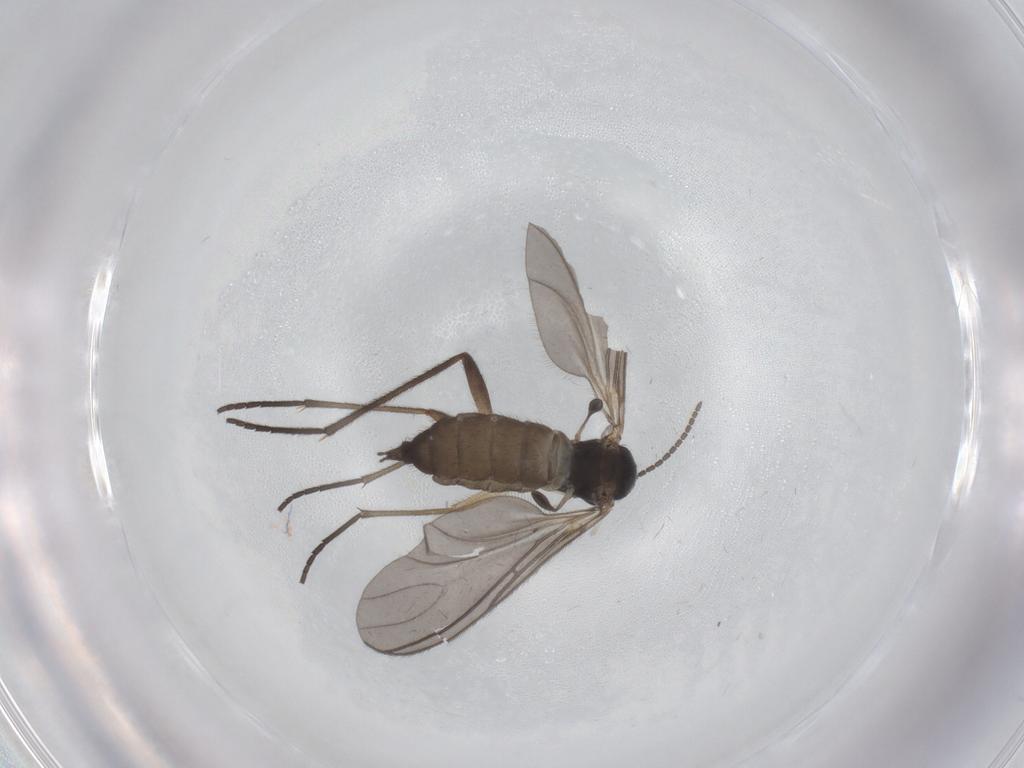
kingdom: Animalia
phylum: Arthropoda
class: Insecta
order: Diptera
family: Sciaridae
